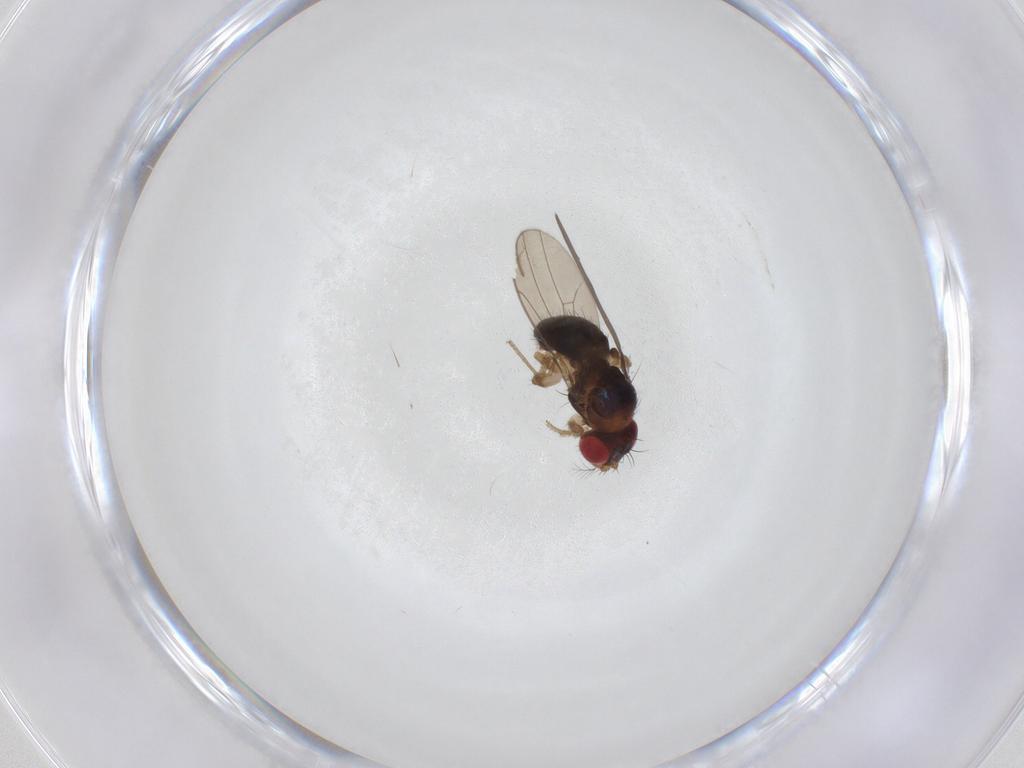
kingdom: Animalia
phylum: Arthropoda
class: Insecta
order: Diptera
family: Drosophilidae
